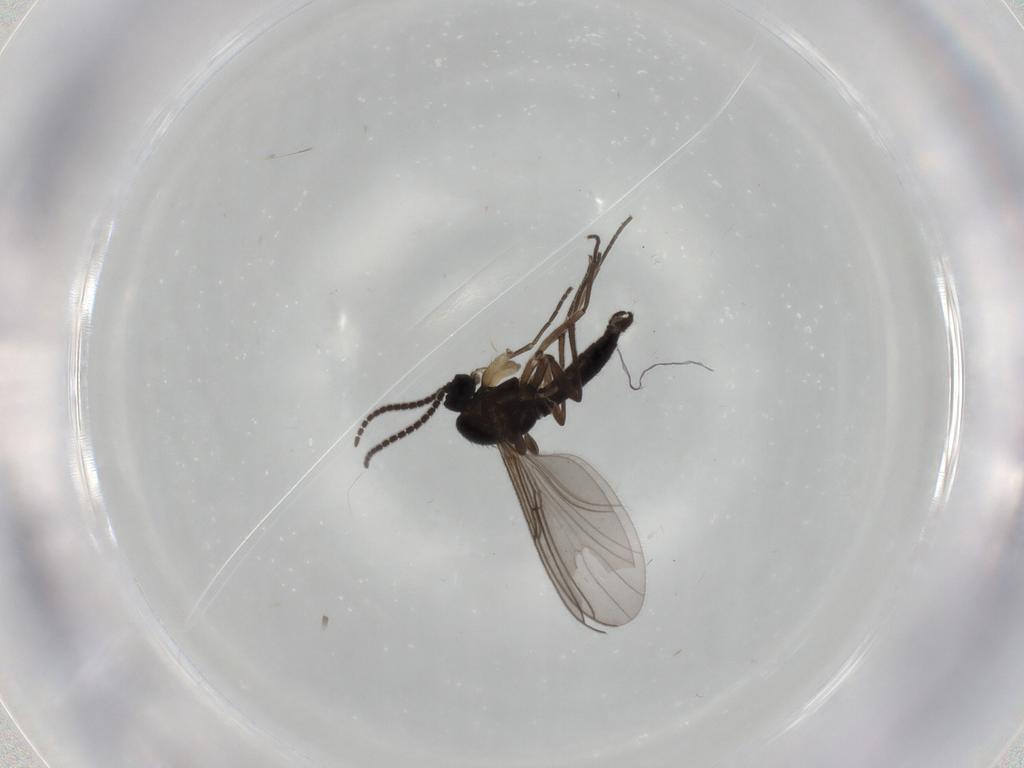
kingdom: Animalia
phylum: Arthropoda
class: Insecta
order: Diptera
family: Sciaridae
